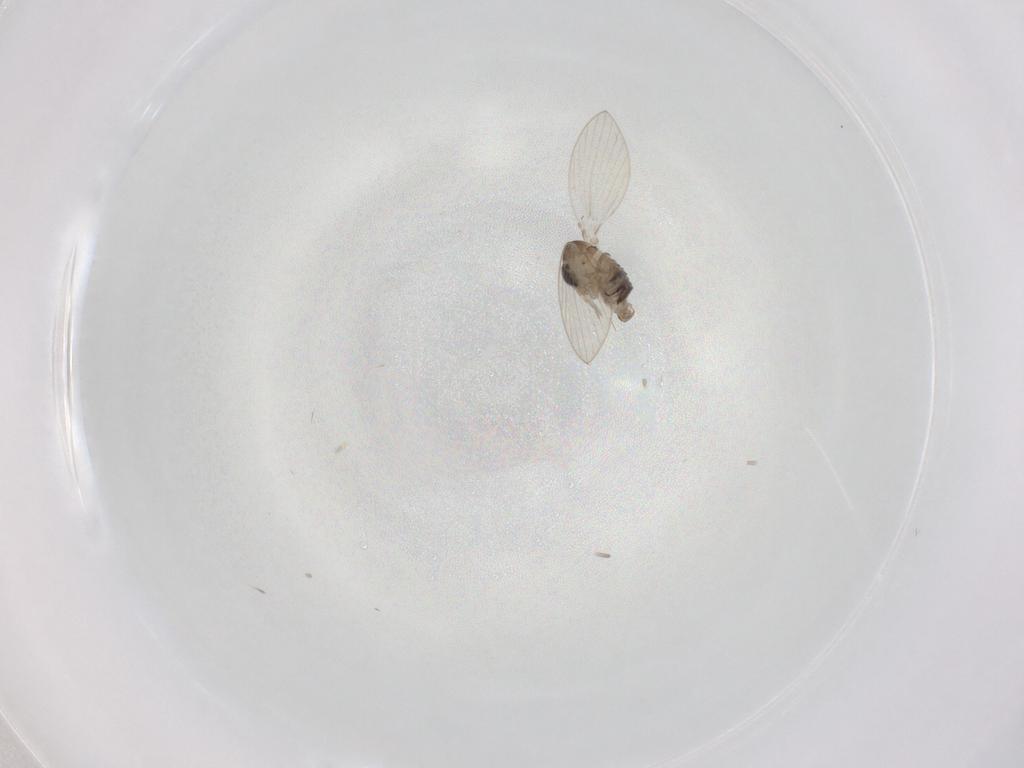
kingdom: Animalia
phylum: Arthropoda
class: Insecta
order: Diptera
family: Psychodidae
